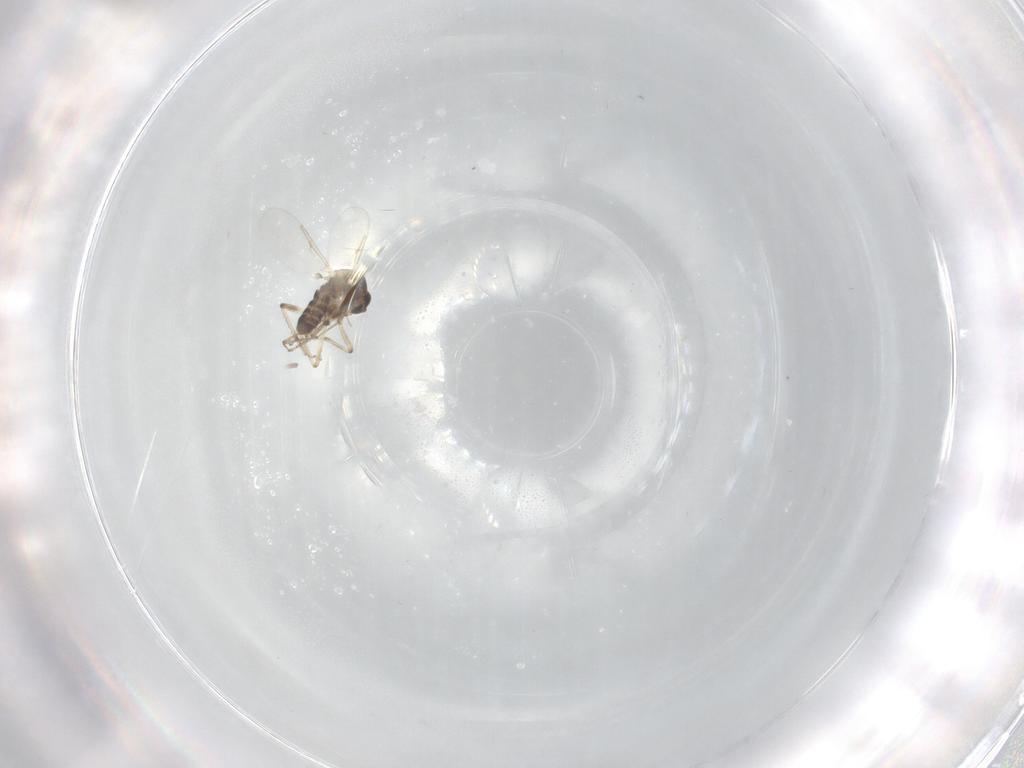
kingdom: Animalia
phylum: Arthropoda
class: Insecta
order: Diptera
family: Ceratopogonidae
